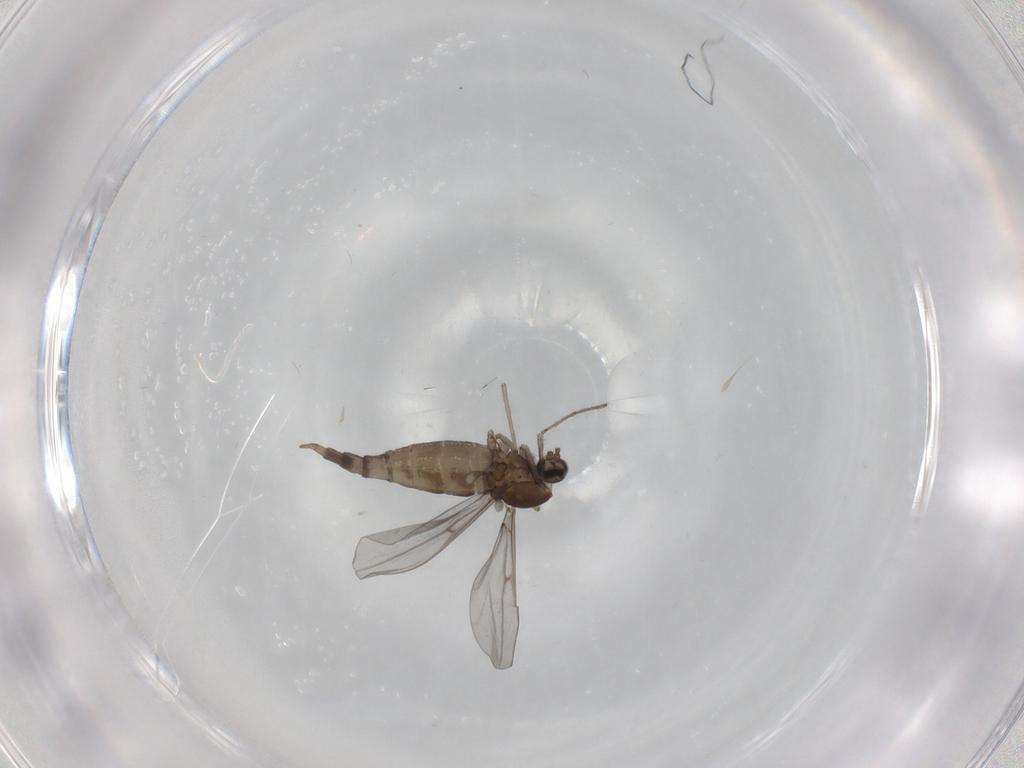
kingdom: Animalia
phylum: Arthropoda
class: Insecta
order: Diptera
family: Cecidomyiidae
